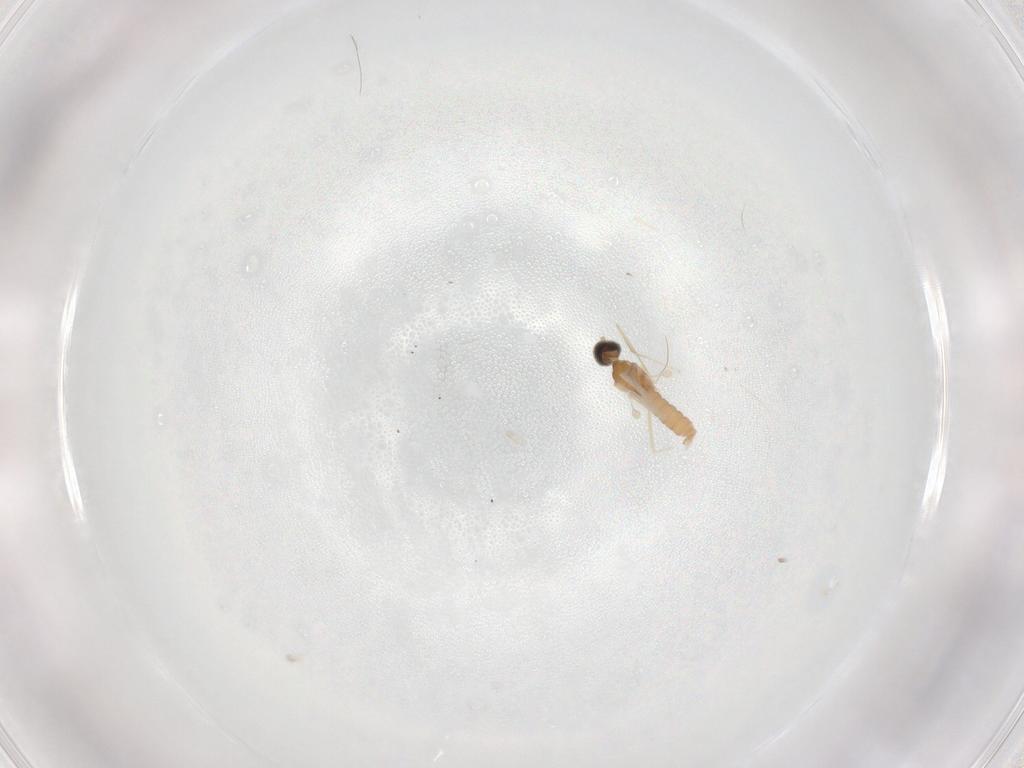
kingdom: Animalia
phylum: Arthropoda
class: Insecta
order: Diptera
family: Cecidomyiidae
